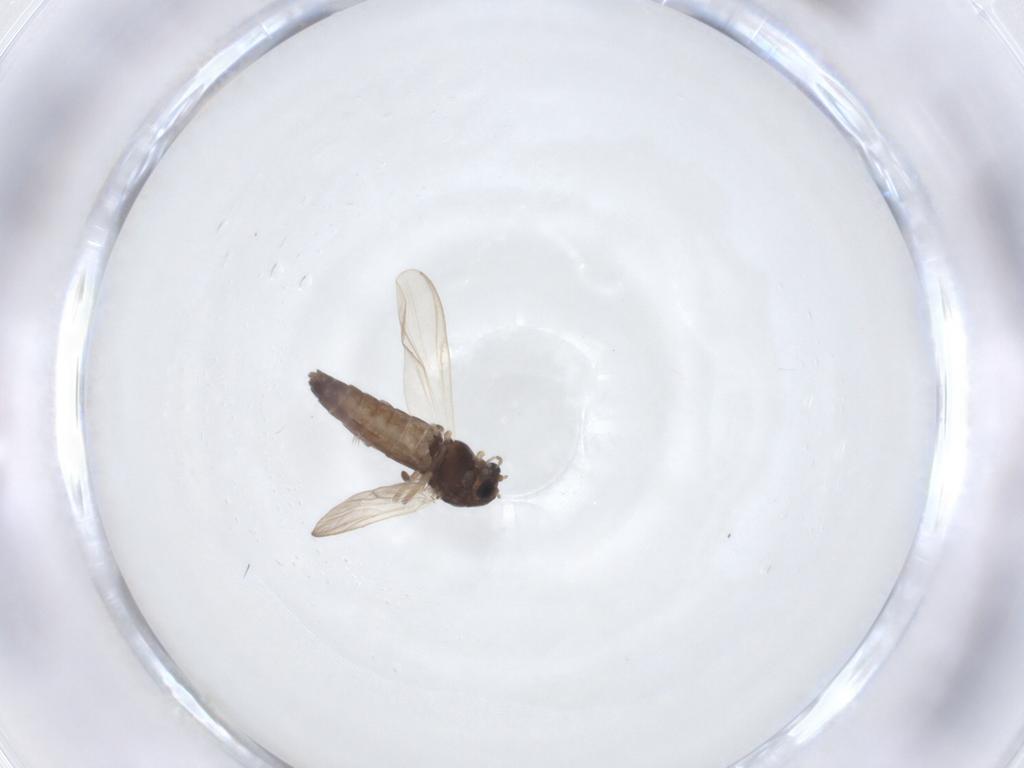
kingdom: Animalia
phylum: Arthropoda
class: Insecta
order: Diptera
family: Chironomidae
